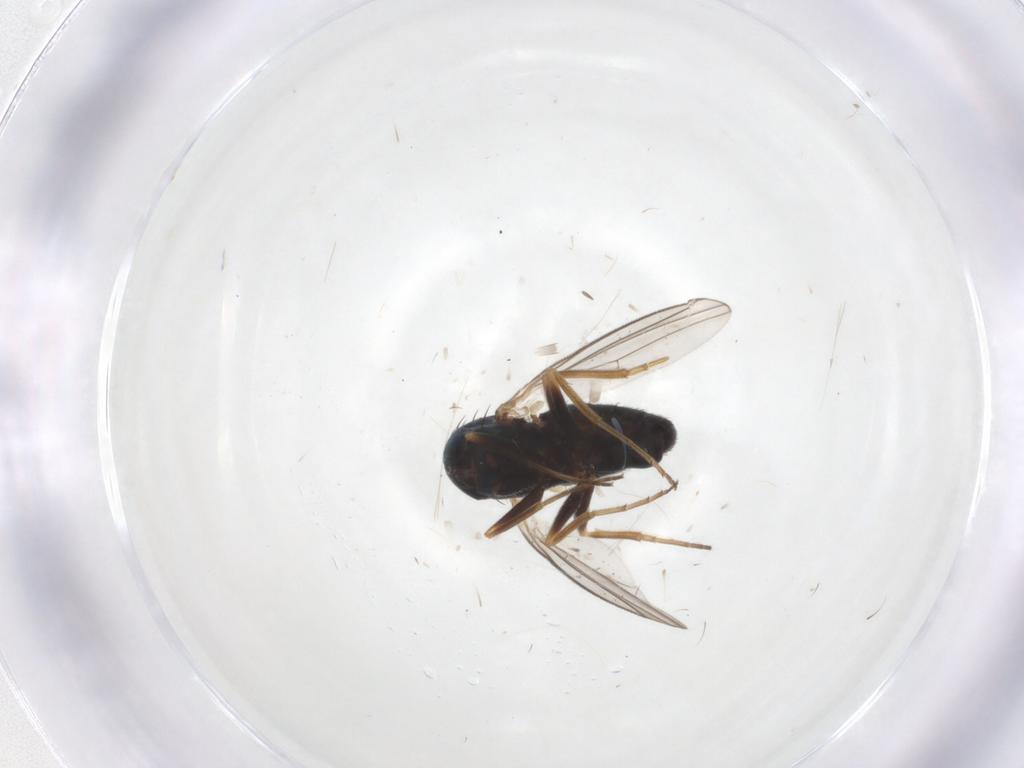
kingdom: Animalia
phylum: Arthropoda
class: Insecta
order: Diptera
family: Dolichopodidae
